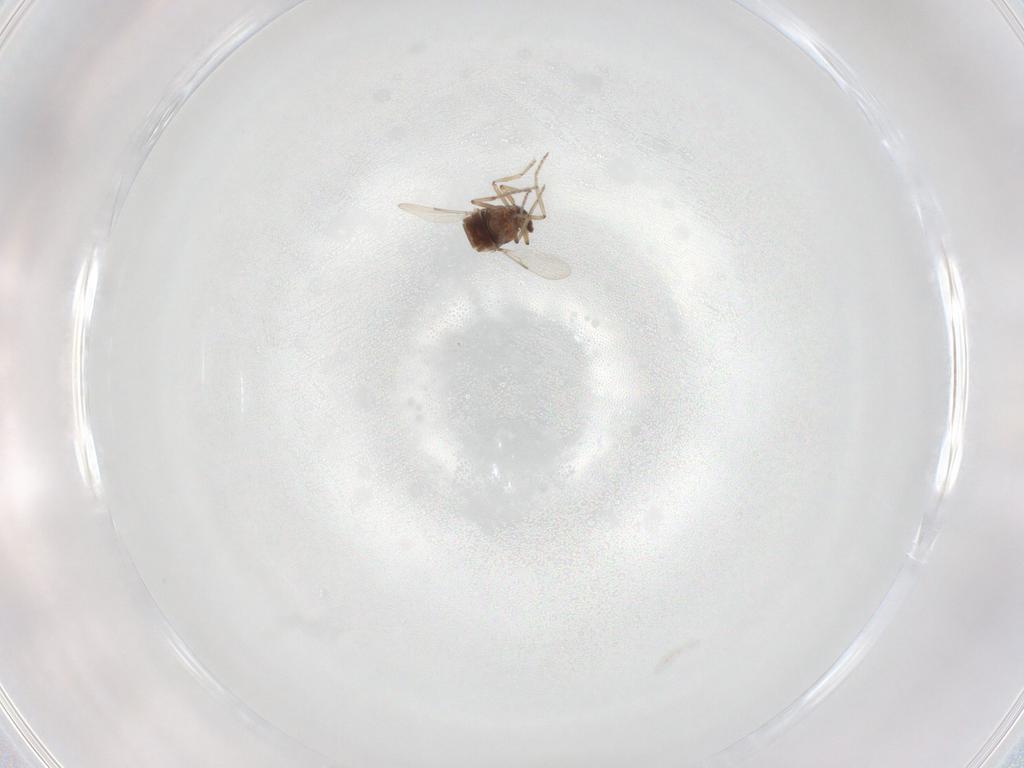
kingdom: Animalia
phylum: Arthropoda
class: Insecta
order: Diptera
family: Ceratopogonidae
